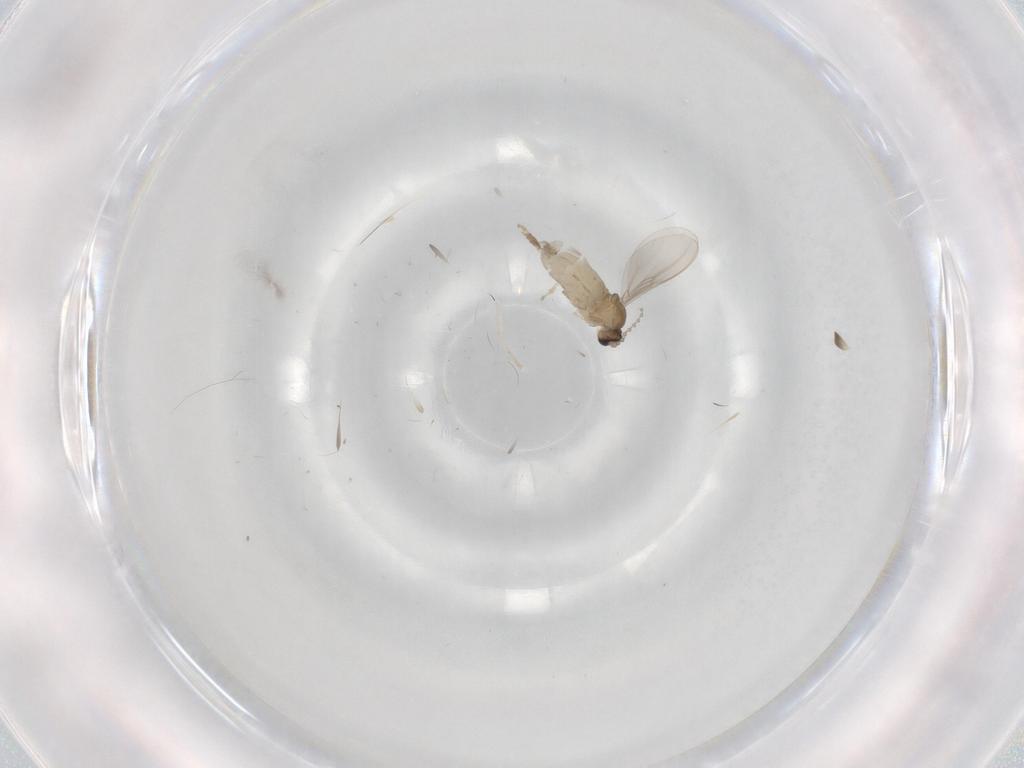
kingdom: Animalia
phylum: Arthropoda
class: Insecta
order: Diptera
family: Cecidomyiidae
